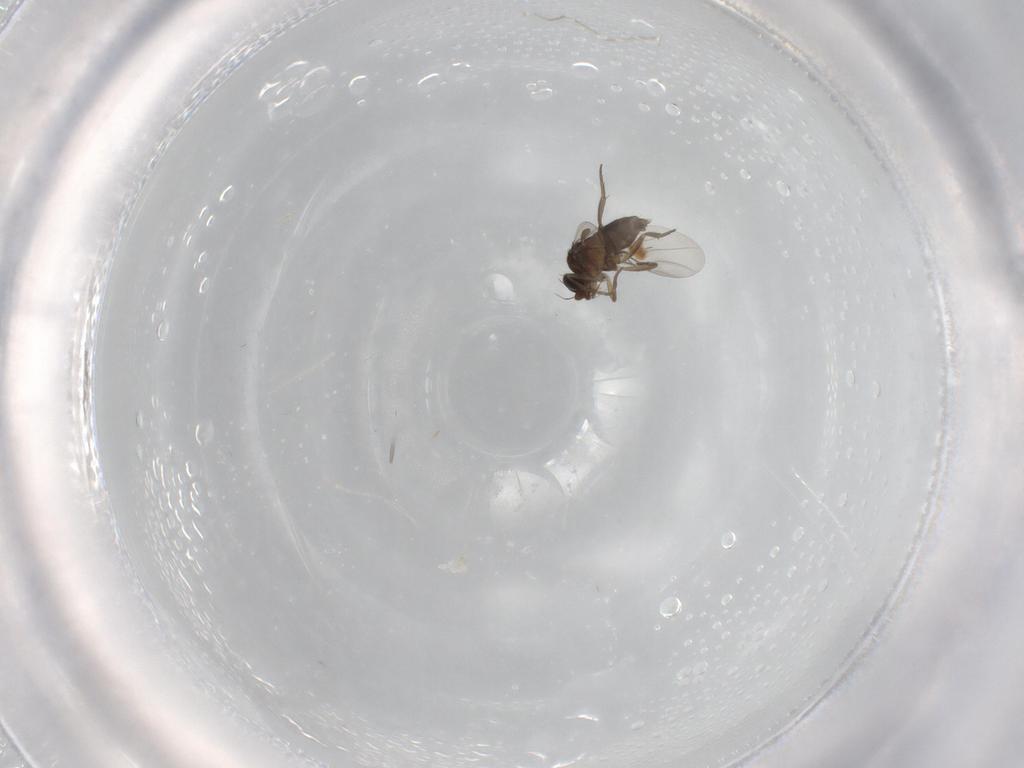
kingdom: Animalia
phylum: Arthropoda
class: Insecta
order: Diptera
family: Phoridae
